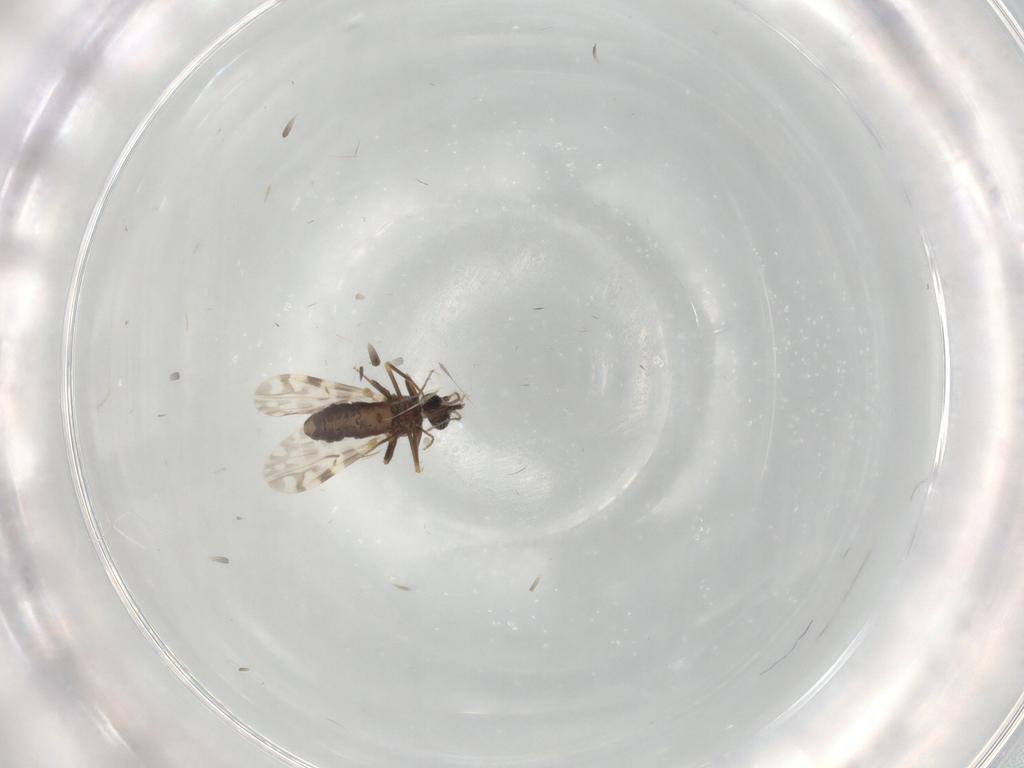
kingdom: Animalia
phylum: Arthropoda
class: Insecta
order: Diptera
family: Ceratopogonidae
